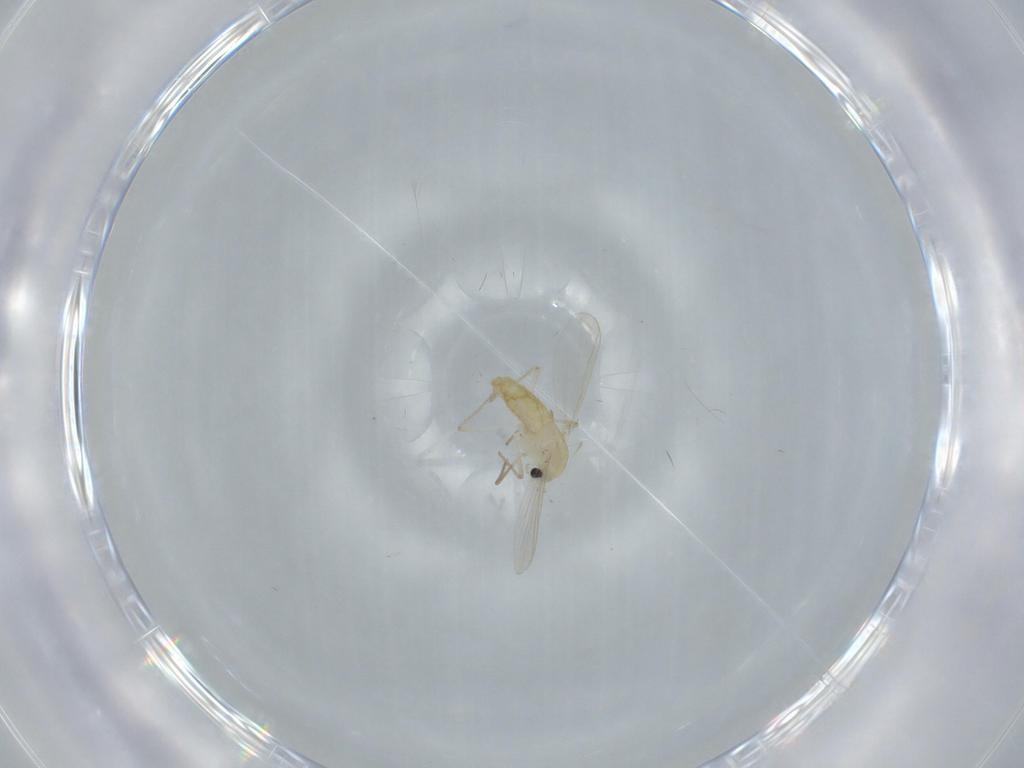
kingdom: Animalia
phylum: Arthropoda
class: Insecta
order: Diptera
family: Chironomidae
